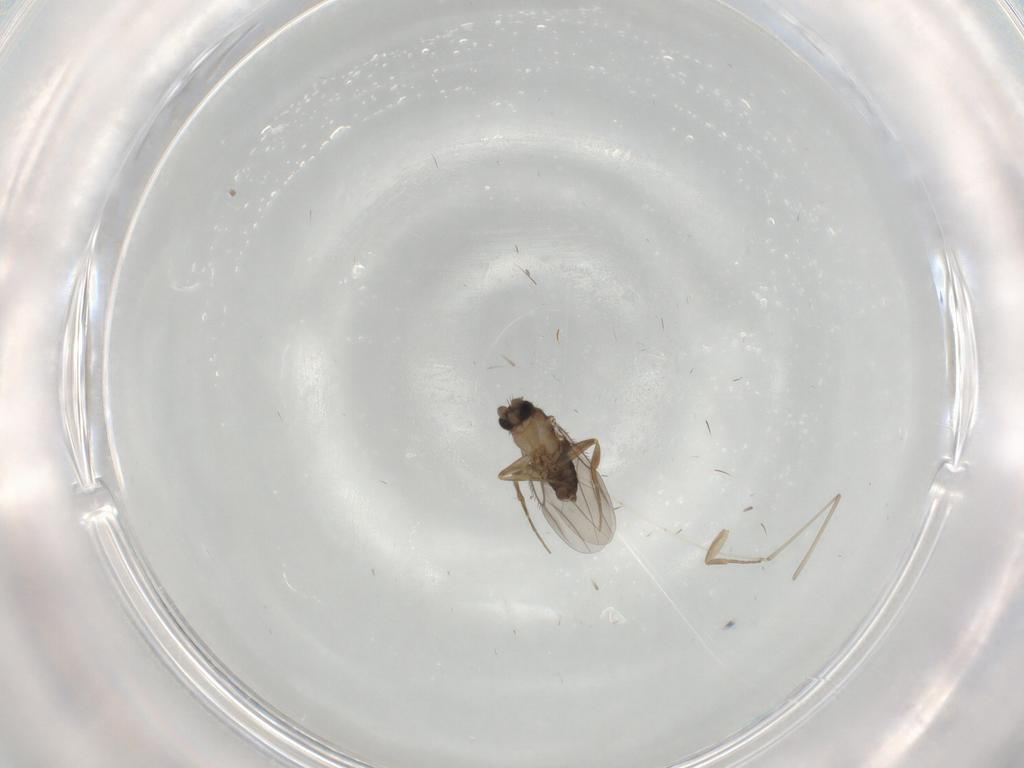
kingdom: Animalia
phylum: Arthropoda
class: Insecta
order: Diptera
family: Phoridae
